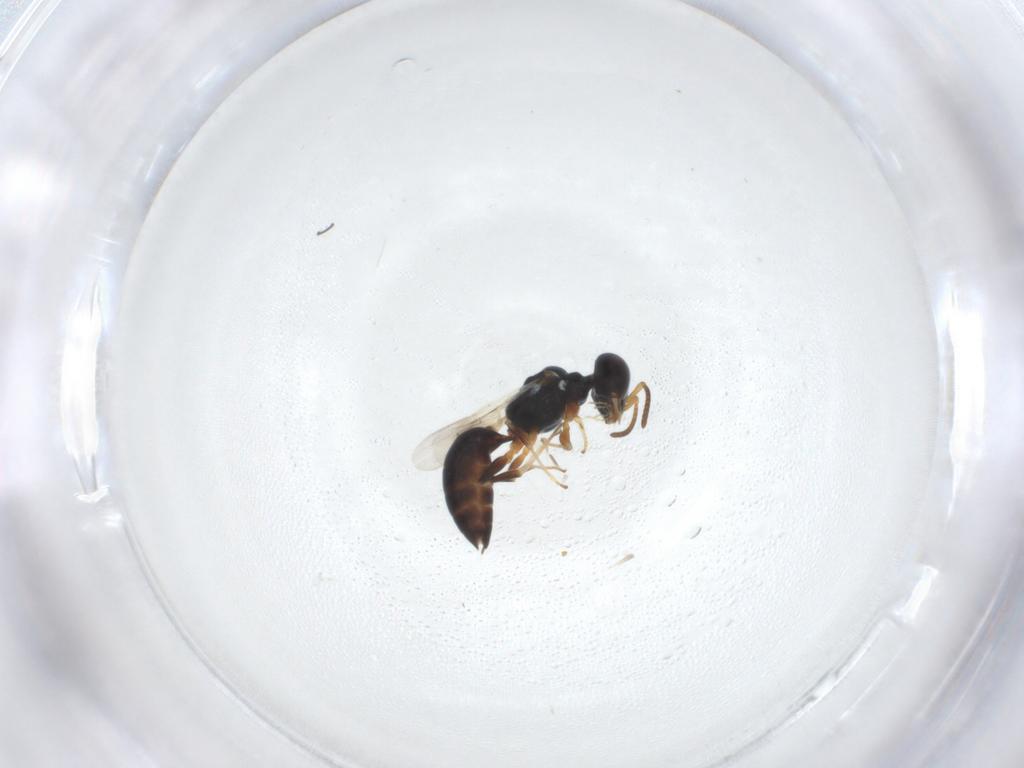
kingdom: Animalia
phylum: Arthropoda
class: Insecta
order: Hymenoptera
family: Pemphredonidae
